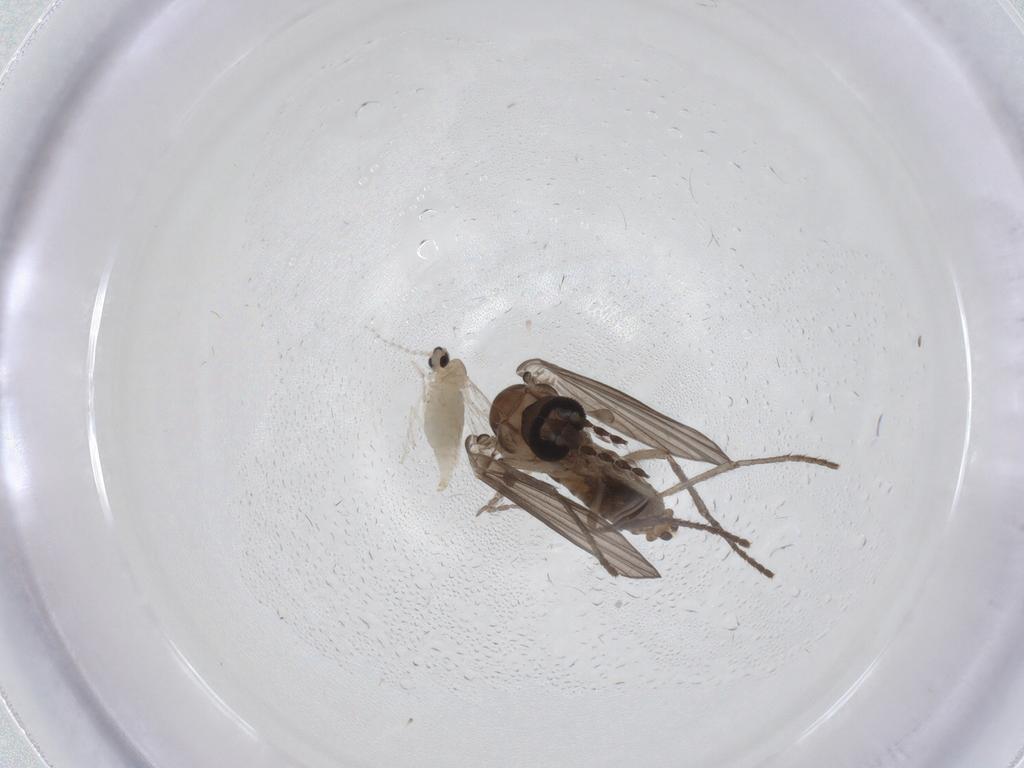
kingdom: Animalia
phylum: Arthropoda
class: Insecta
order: Diptera
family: Psychodidae
